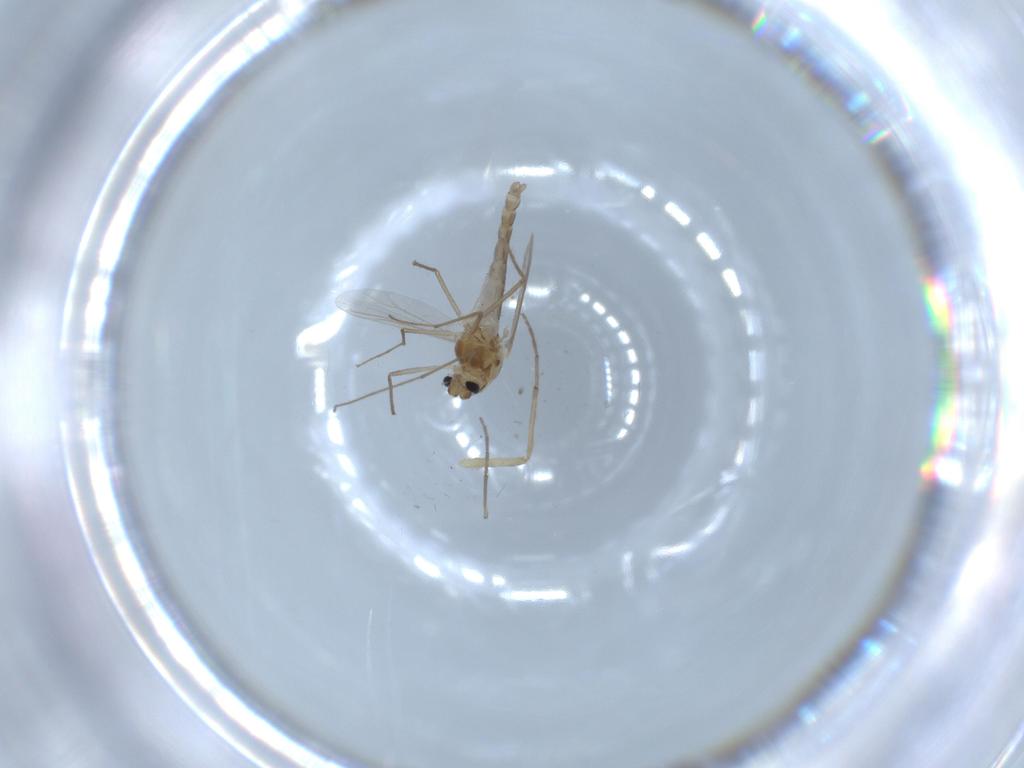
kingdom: Animalia
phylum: Arthropoda
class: Insecta
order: Diptera
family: Chironomidae
